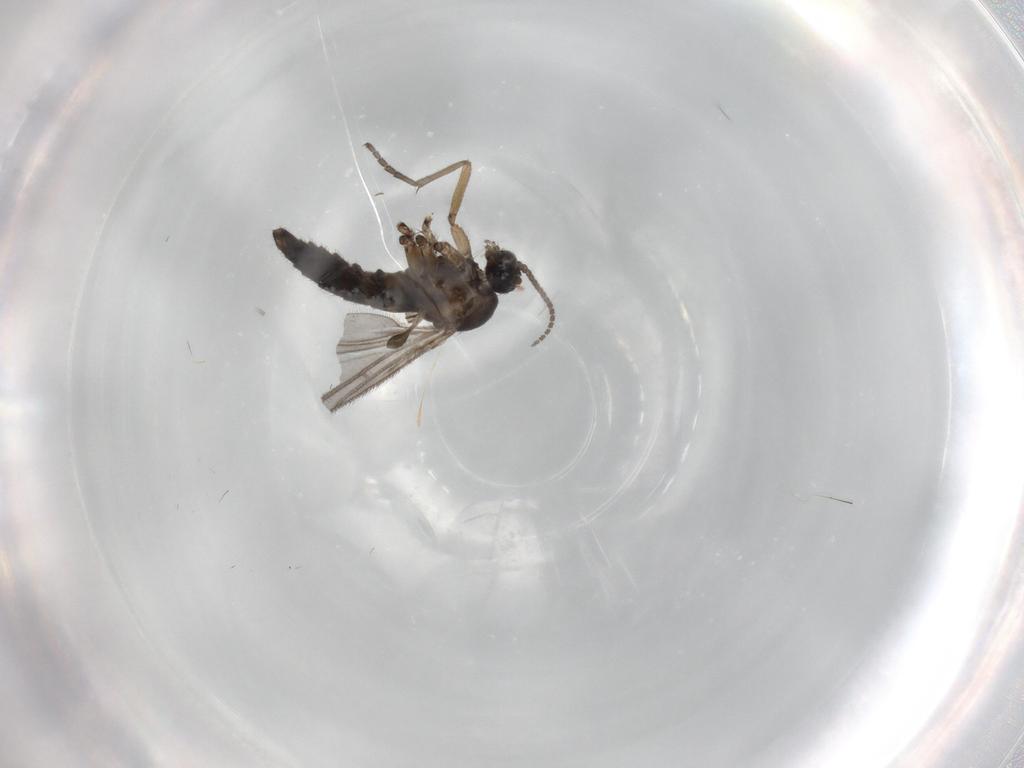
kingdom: Animalia
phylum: Arthropoda
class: Insecta
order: Diptera
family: Sciaridae
